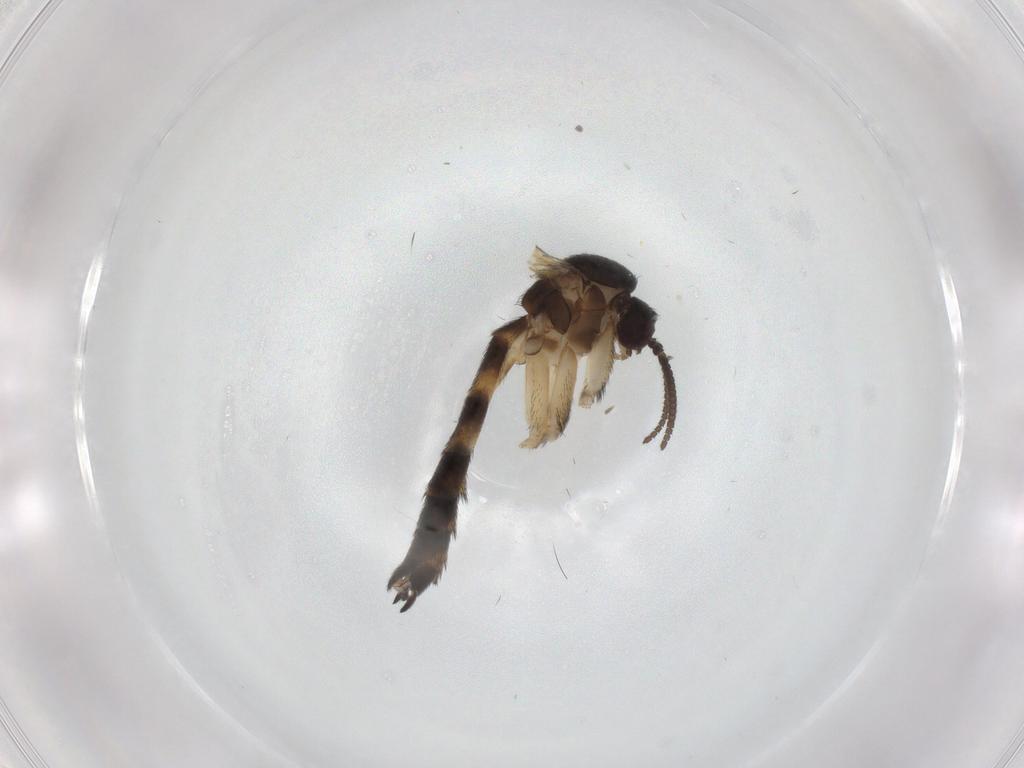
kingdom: Animalia
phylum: Arthropoda
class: Insecta
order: Diptera
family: Keroplatidae
